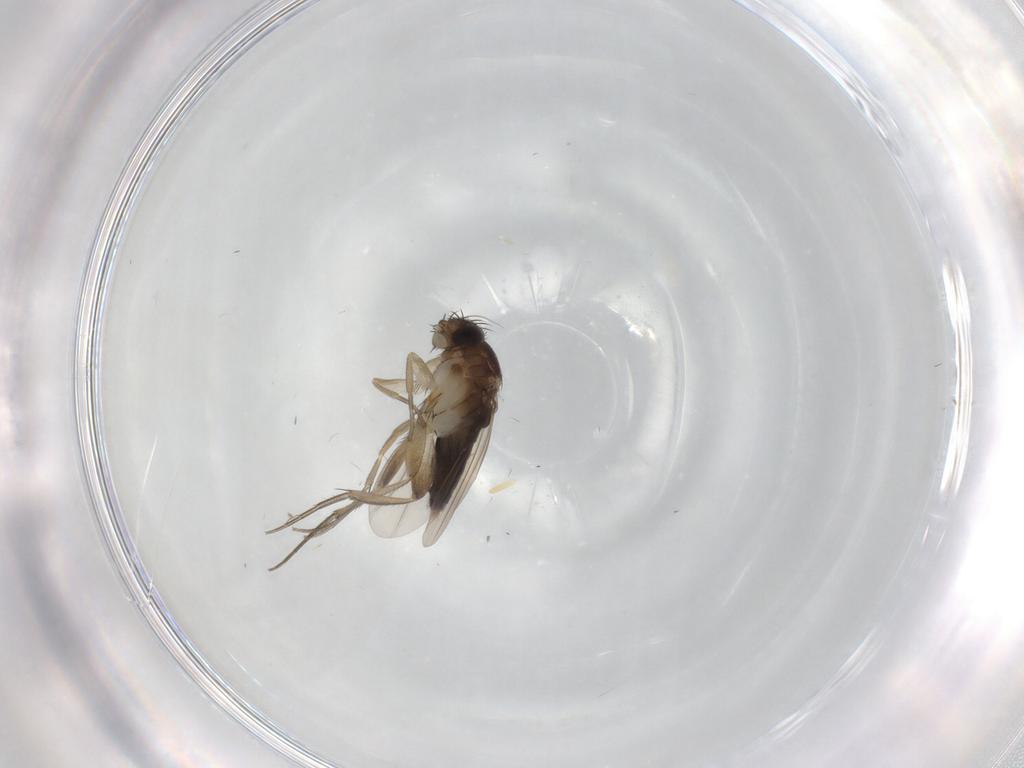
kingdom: Animalia
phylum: Arthropoda
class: Insecta
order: Diptera
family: Phoridae
